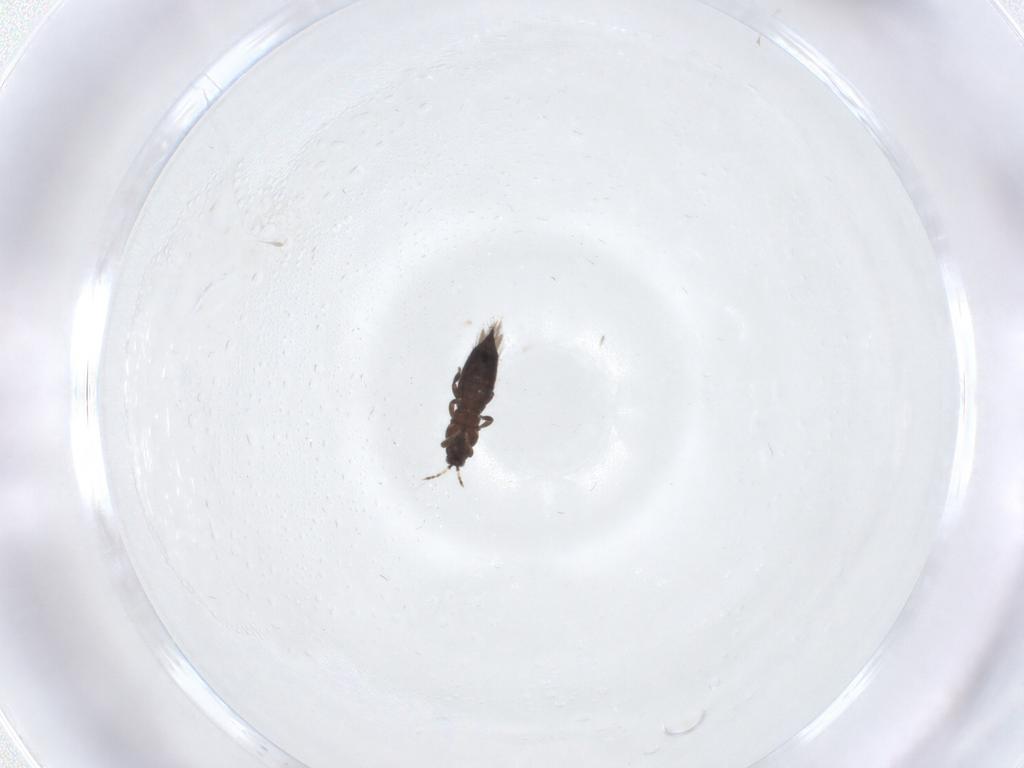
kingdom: Animalia
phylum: Arthropoda
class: Insecta
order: Thysanoptera
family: Thripidae
